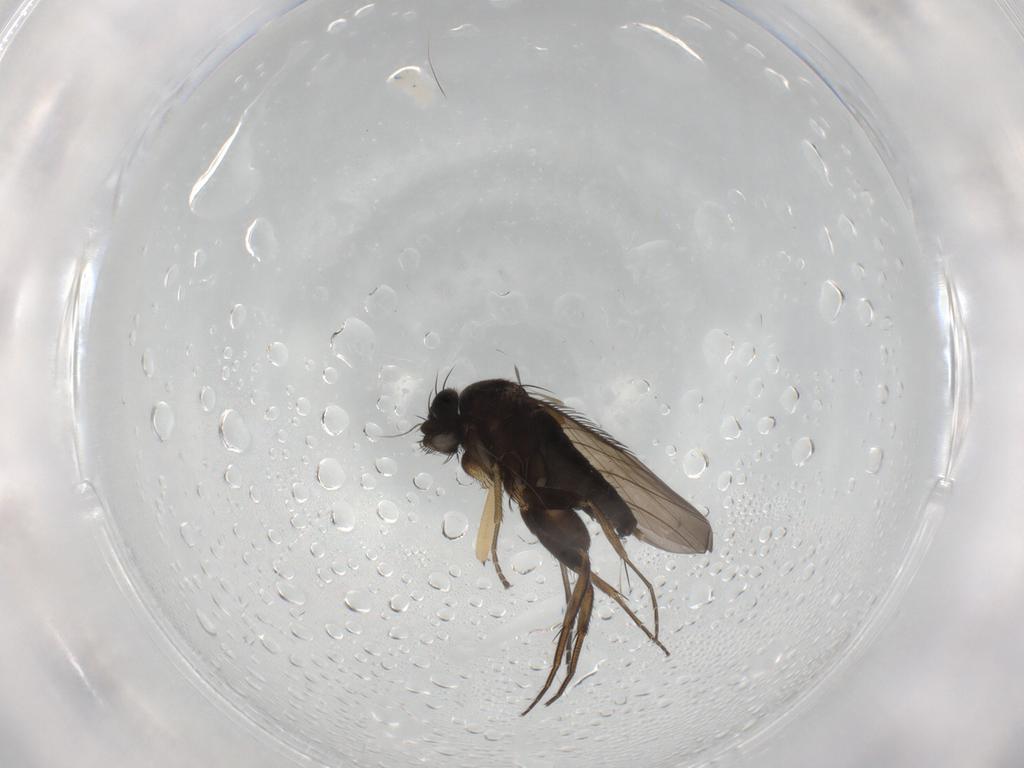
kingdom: Animalia
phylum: Arthropoda
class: Insecta
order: Diptera
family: Phoridae
